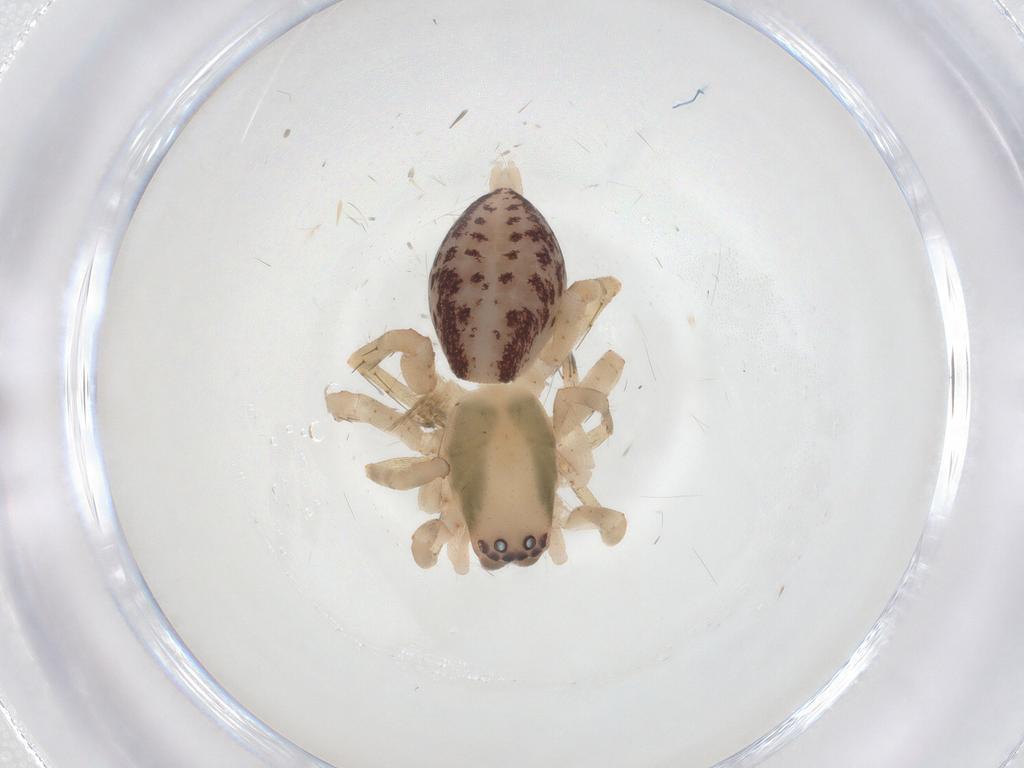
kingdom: Animalia
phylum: Arthropoda
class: Arachnida
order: Araneae
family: Clubionidae
